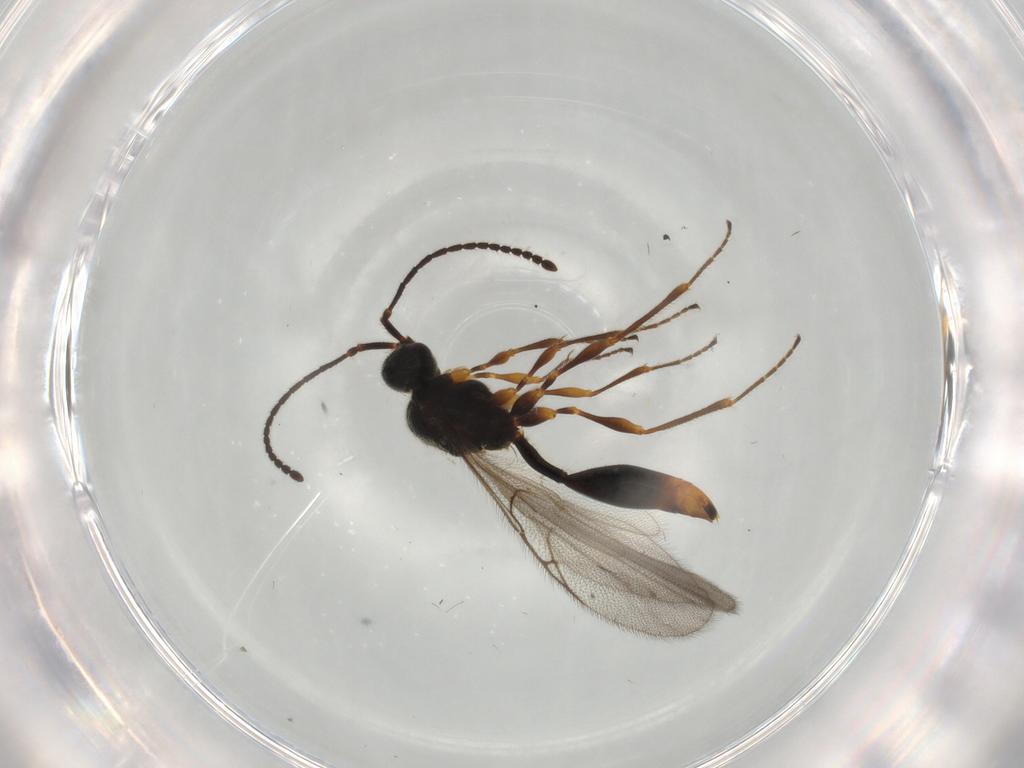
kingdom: Animalia
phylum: Arthropoda
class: Insecta
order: Hymenoptera
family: Diapriidae
